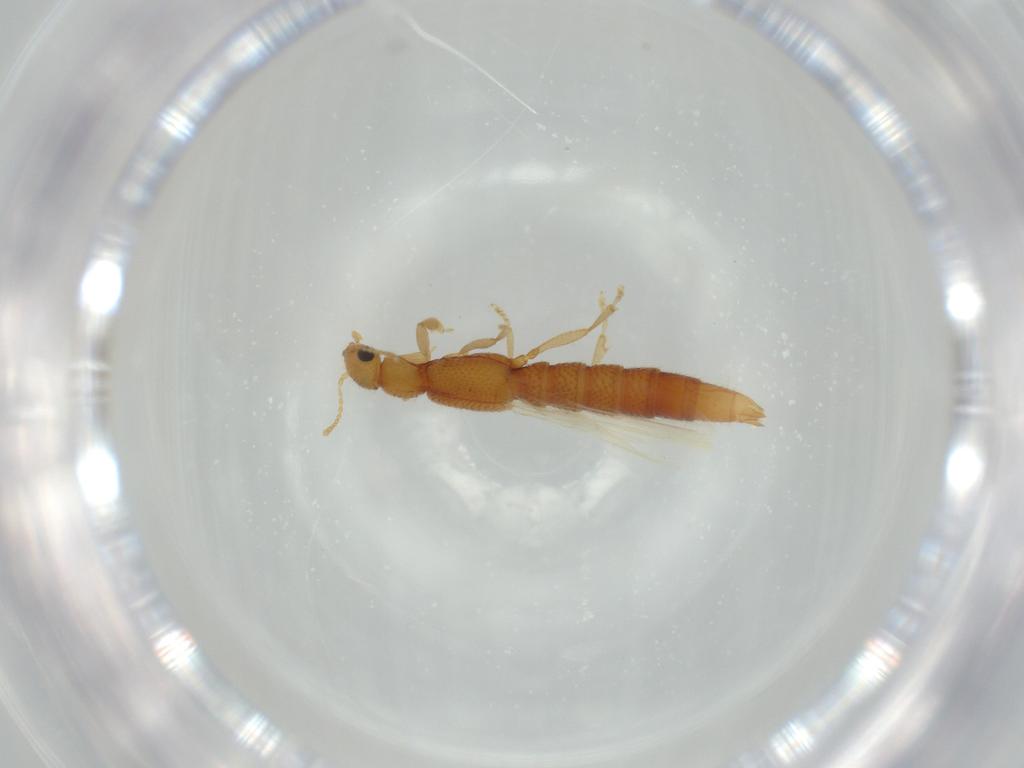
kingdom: Animalia
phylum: Arthropoda
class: Insecta
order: Coleoptera
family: Staphylinidae
